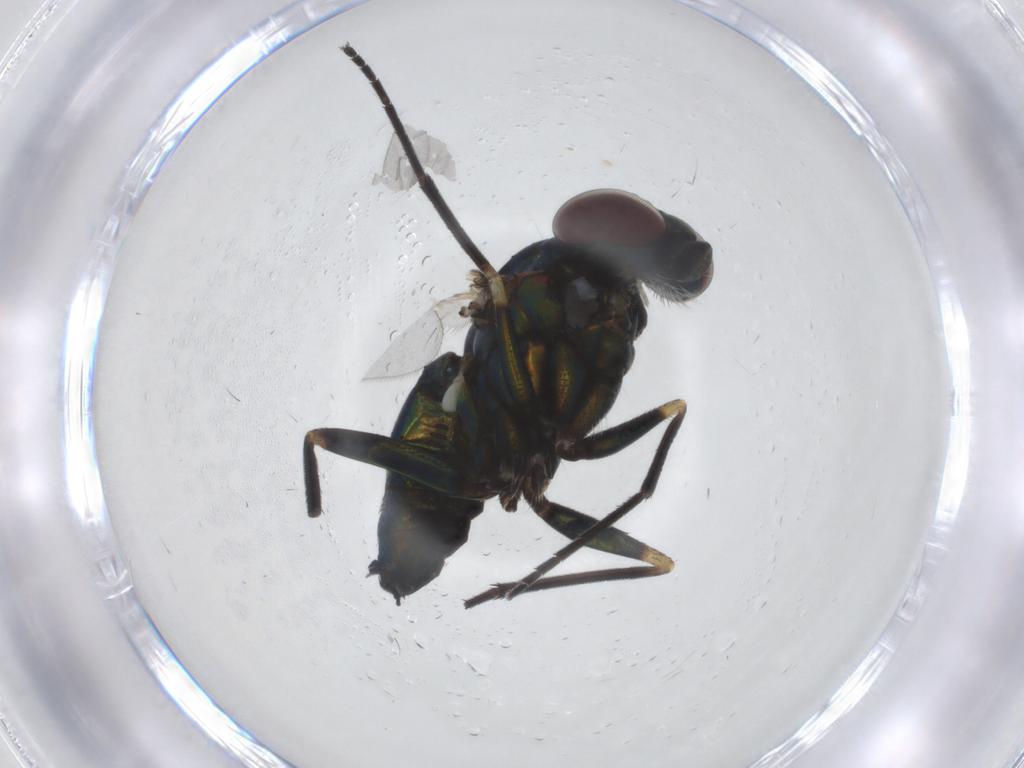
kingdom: Animalia
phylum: Arthropoda
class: Insecta
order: Diptera
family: Dolichopodidae
